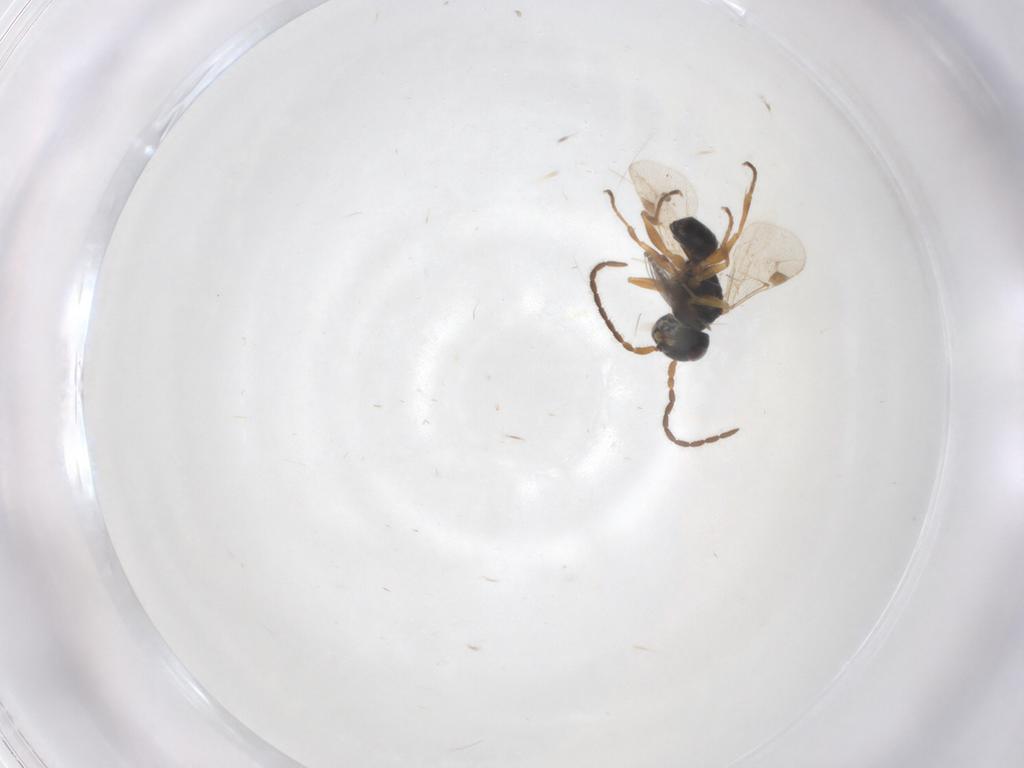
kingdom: Animalia
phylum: Arthropoda
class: Insecta
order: Hymenoptera
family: Dryinidae
